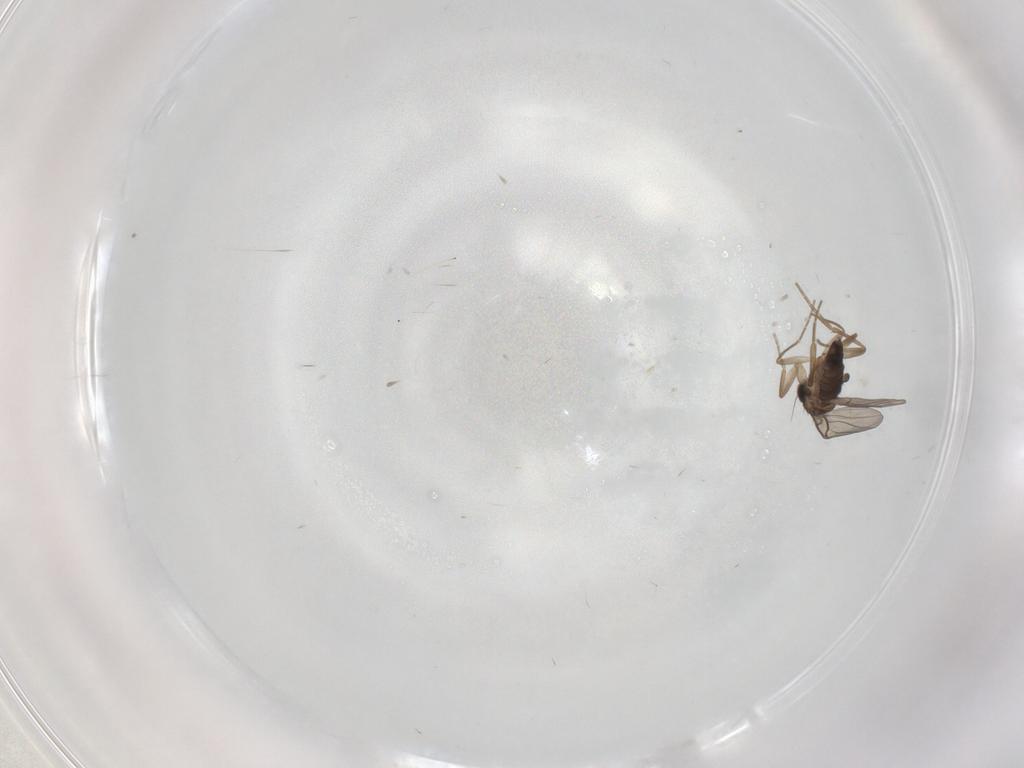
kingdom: Animalia
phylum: Arthropoda
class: Insecta
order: Diptera
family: Phoridae
